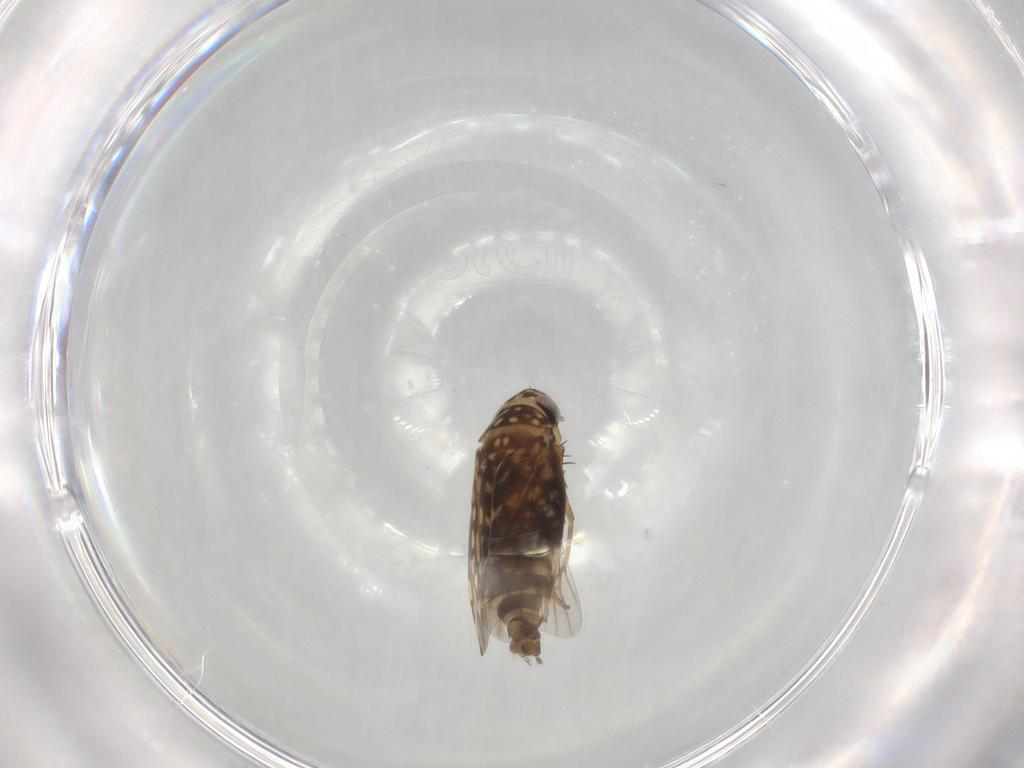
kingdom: Animalia
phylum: Arthropoda
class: Insecta
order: Hemiptera
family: Cicadellidae
